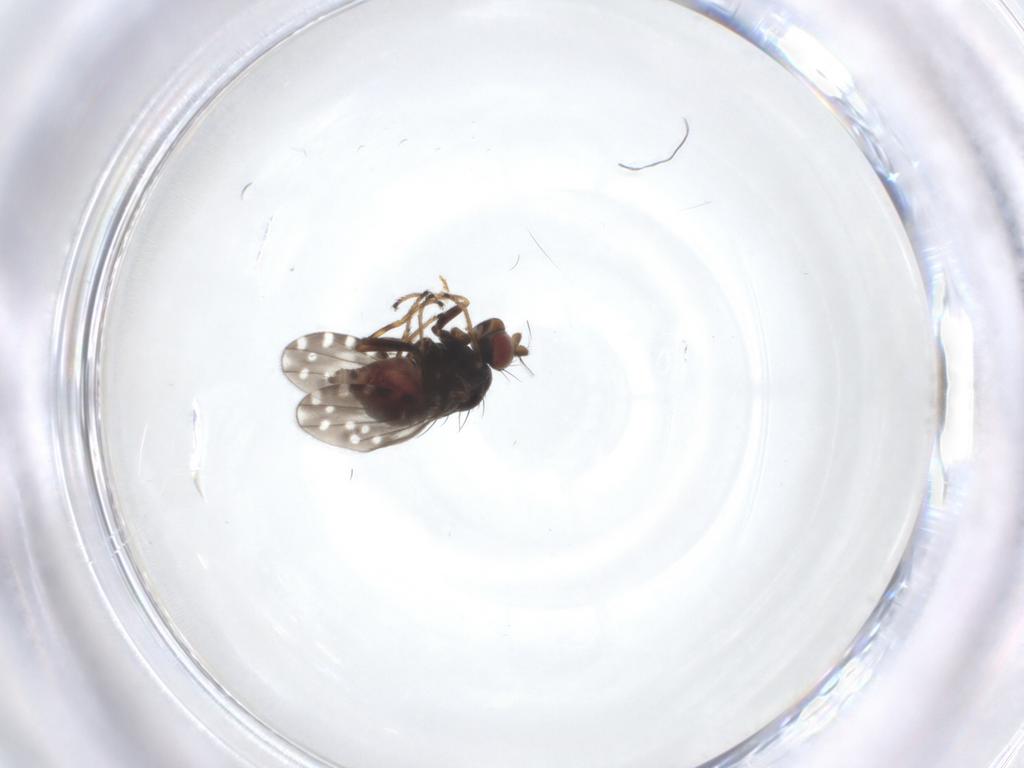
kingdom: Animalia
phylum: Arthropoda
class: Insecta
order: Diptera
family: Ephydridae
